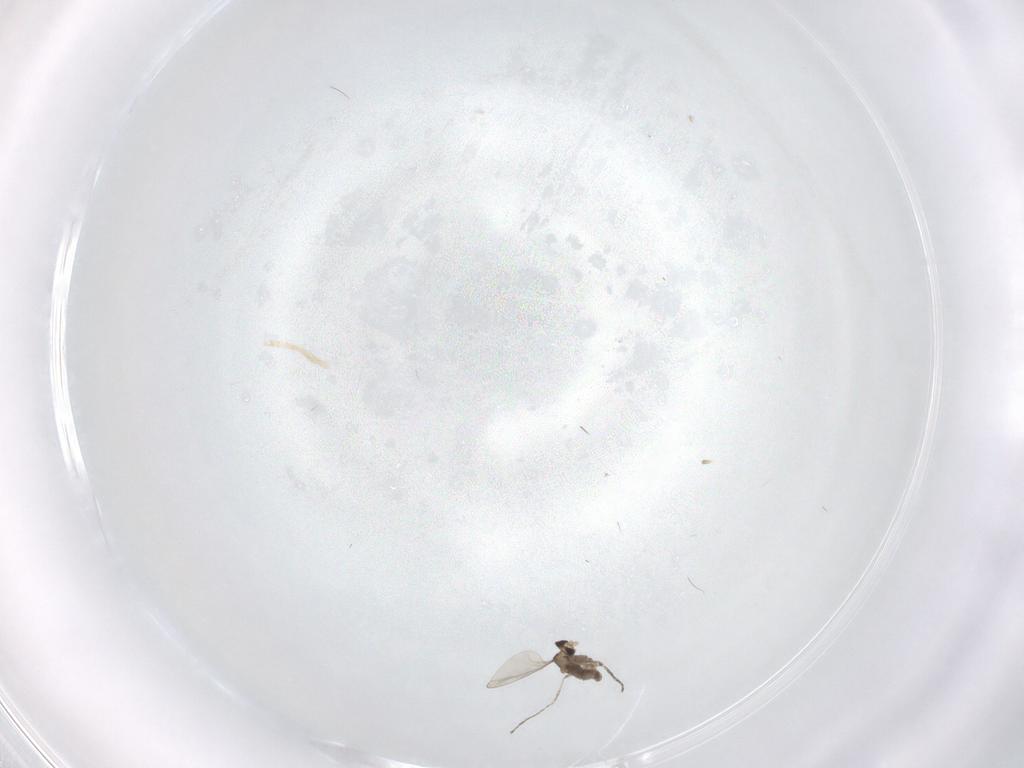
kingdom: Animalia
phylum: Arthropoda
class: Insecta
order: Diptera
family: Cecidomyiidae
